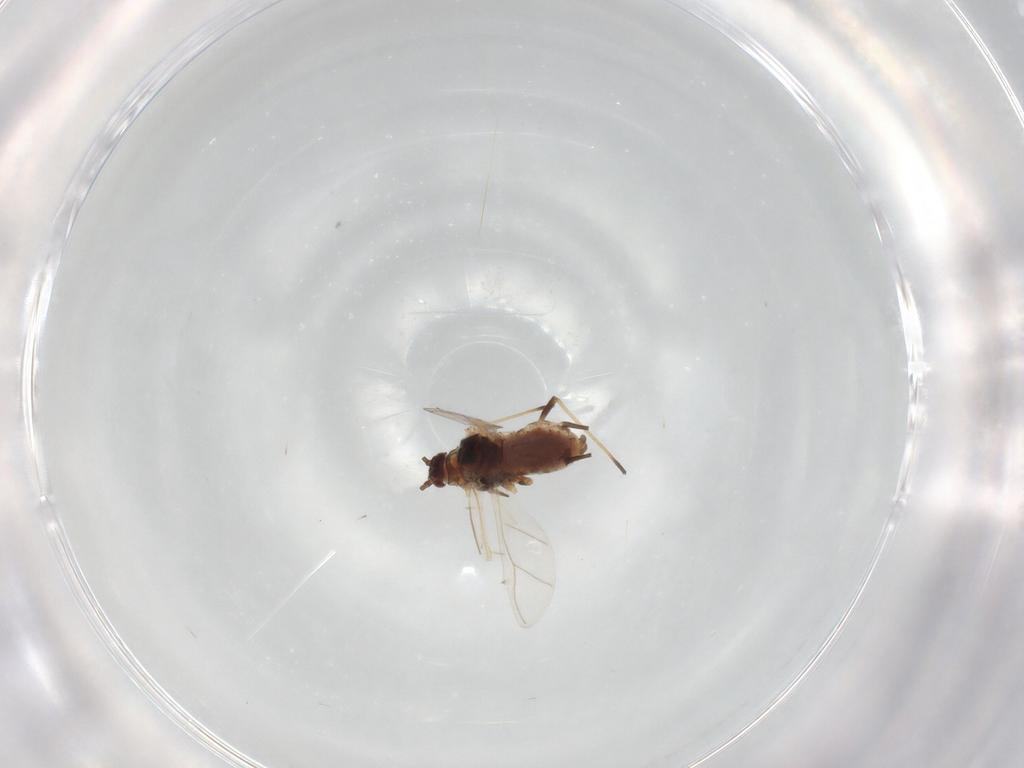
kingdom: Animalia
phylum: Arthropoda
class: Insecta
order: Hemiptera
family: Aphididae
